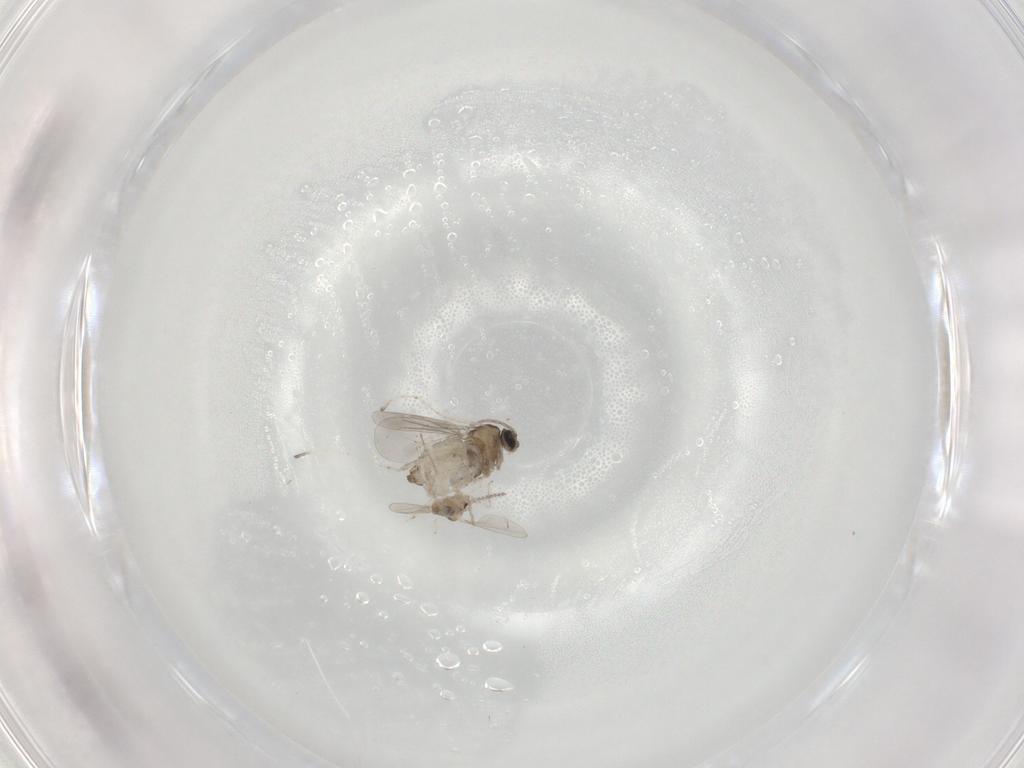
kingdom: Animalia
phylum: Arthropoda
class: Insecta
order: Diptera
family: Cecidomyiidae
